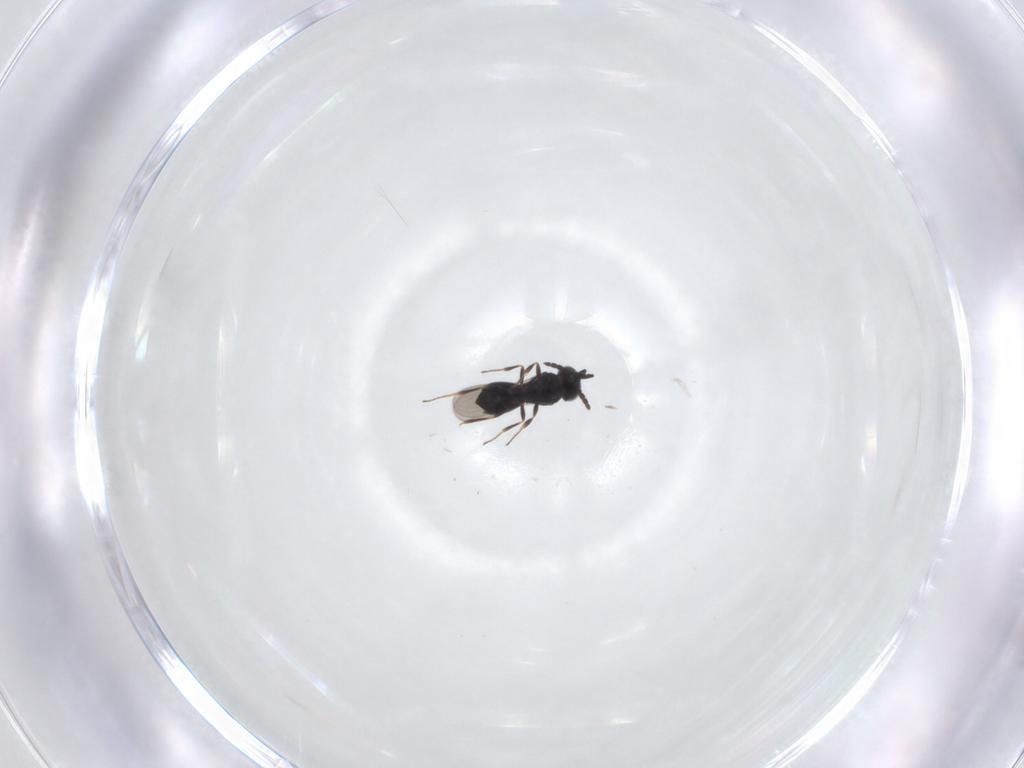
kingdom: Animalia
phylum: Arthropoda
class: Insecta
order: Hymenoptera
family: Scelionidae
